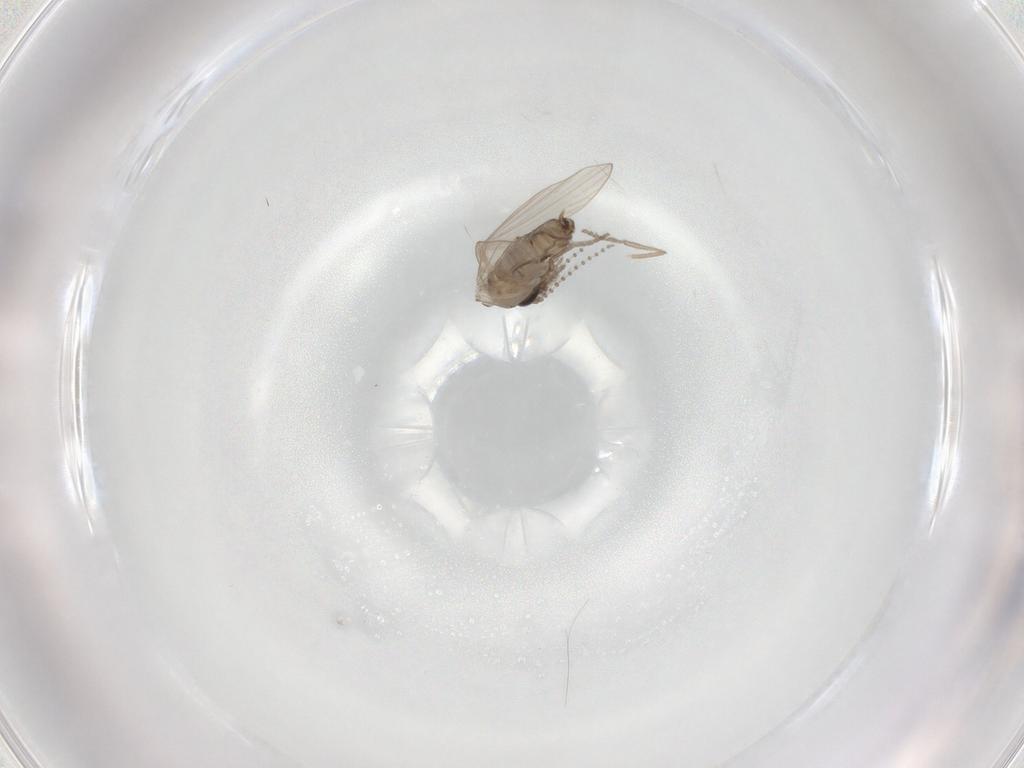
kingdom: Animalia
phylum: Arthropoda
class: Insecta
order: Diptera
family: Psychodidae
